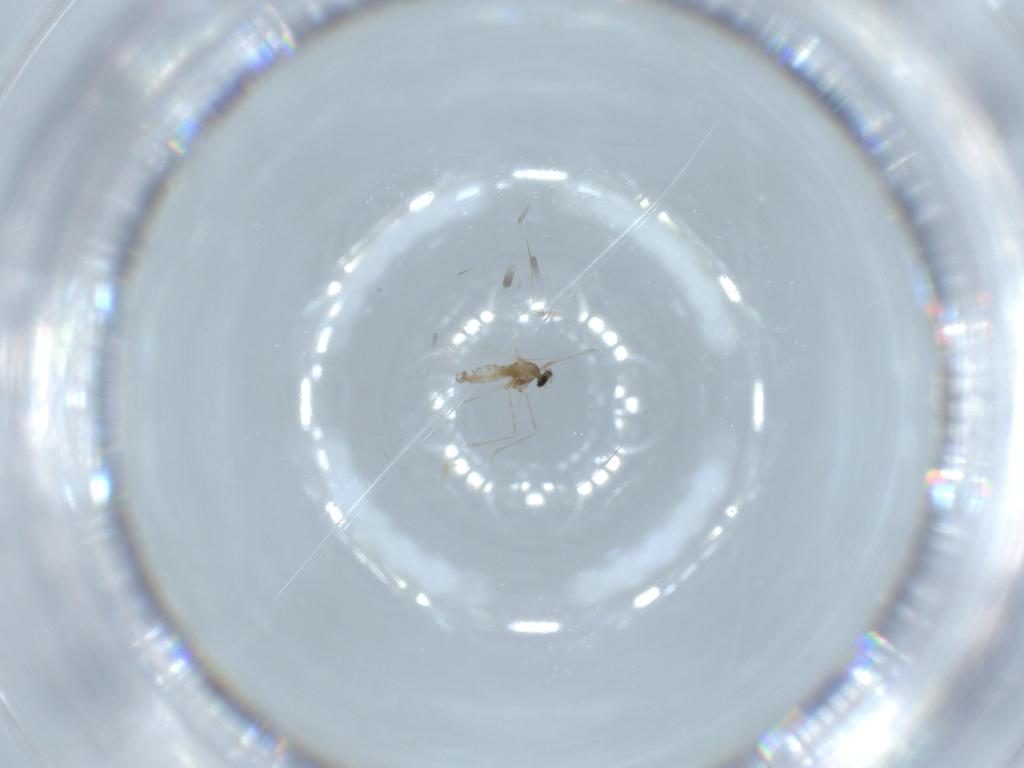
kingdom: Animalia
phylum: Arthropoda
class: Insecta
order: Diptera
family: Cecidomyiidae
